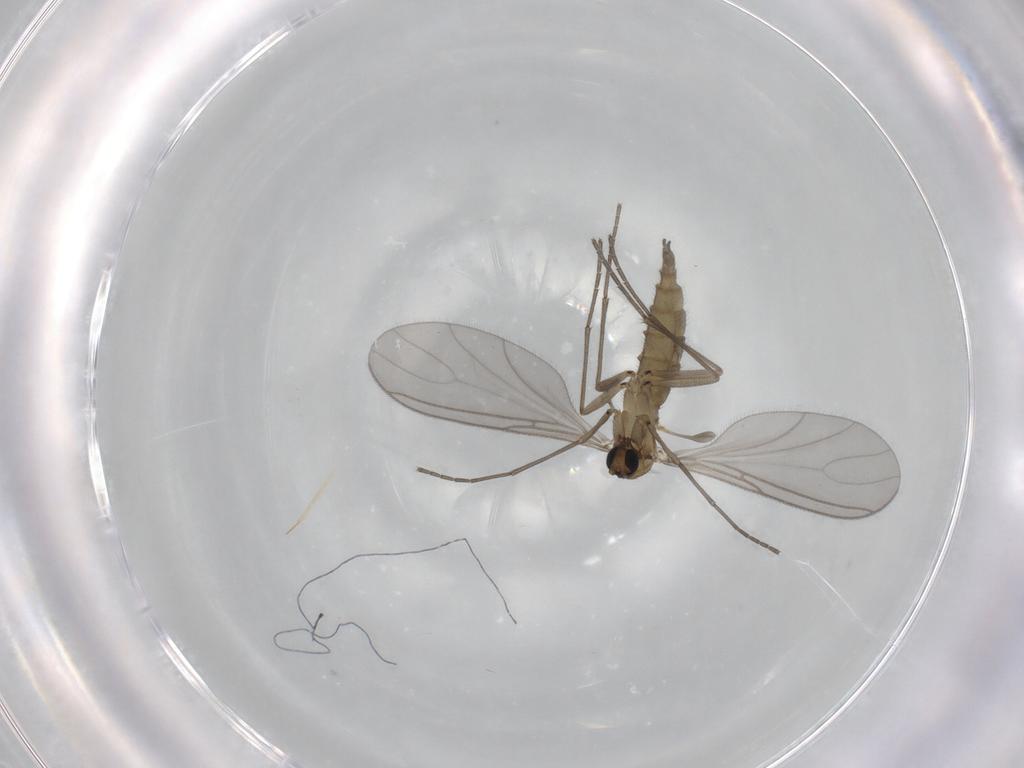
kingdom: Animalia
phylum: Arthropoda
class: Insecta
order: Diptera
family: Sciaridae
